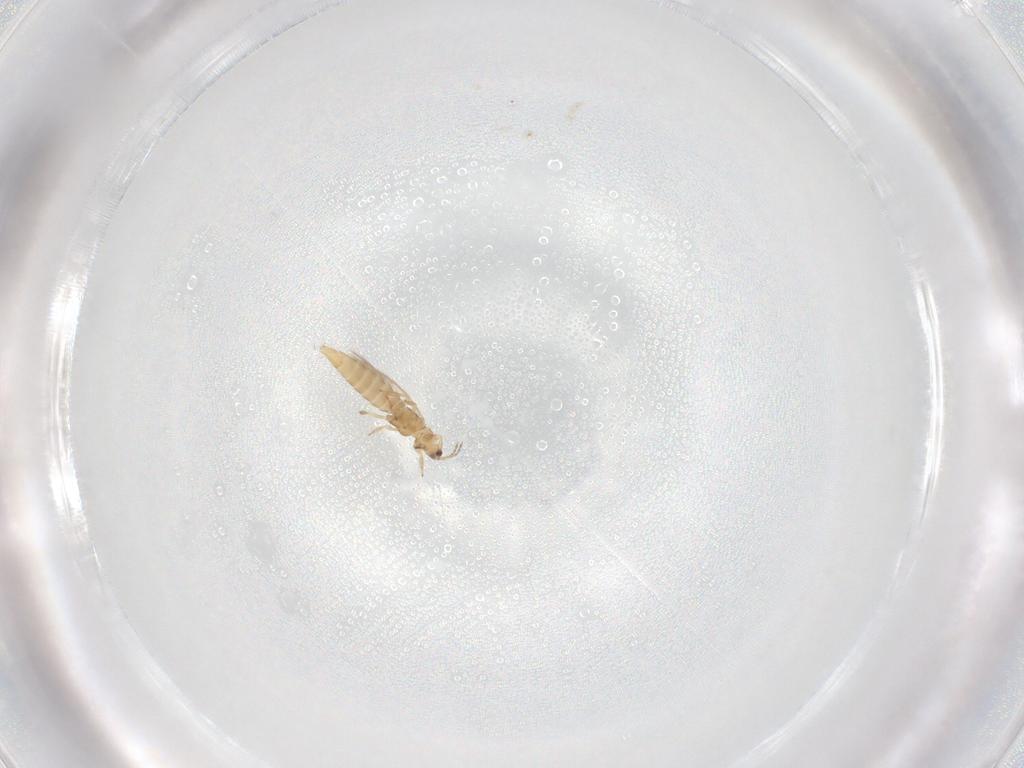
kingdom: Animalia
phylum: Arthropoda
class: Insecta
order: Thysanoptera
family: Thripidae
